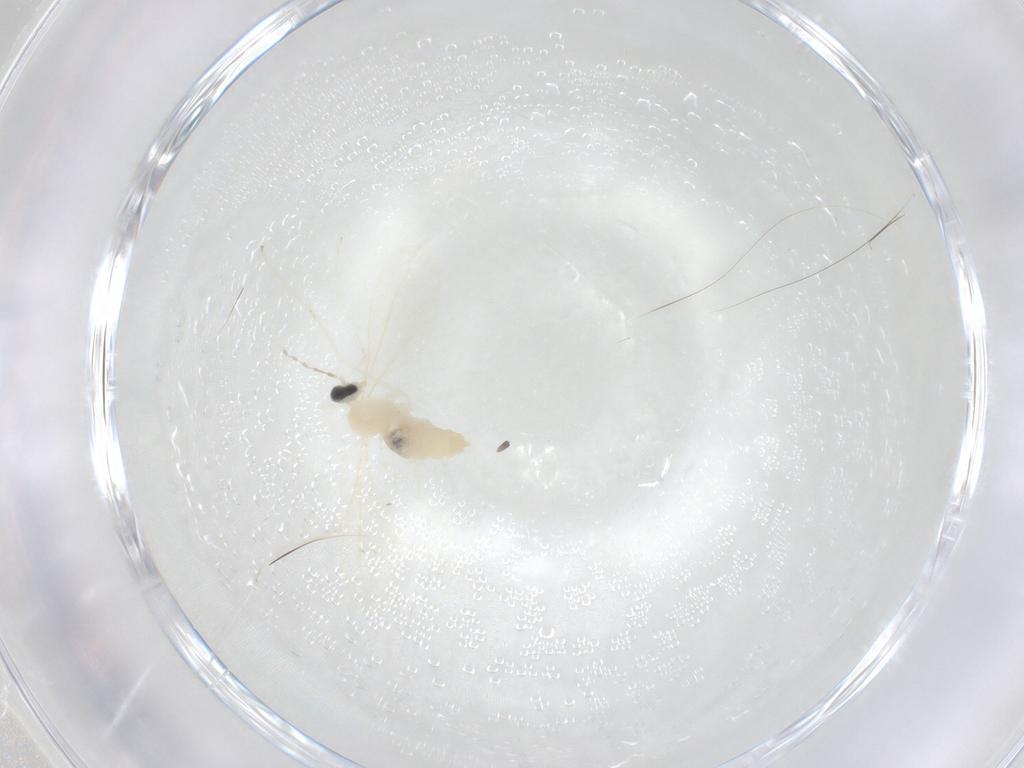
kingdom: Animalia
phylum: Arthropoda
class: Insecta
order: Diptera
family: Cecidomyiidae
